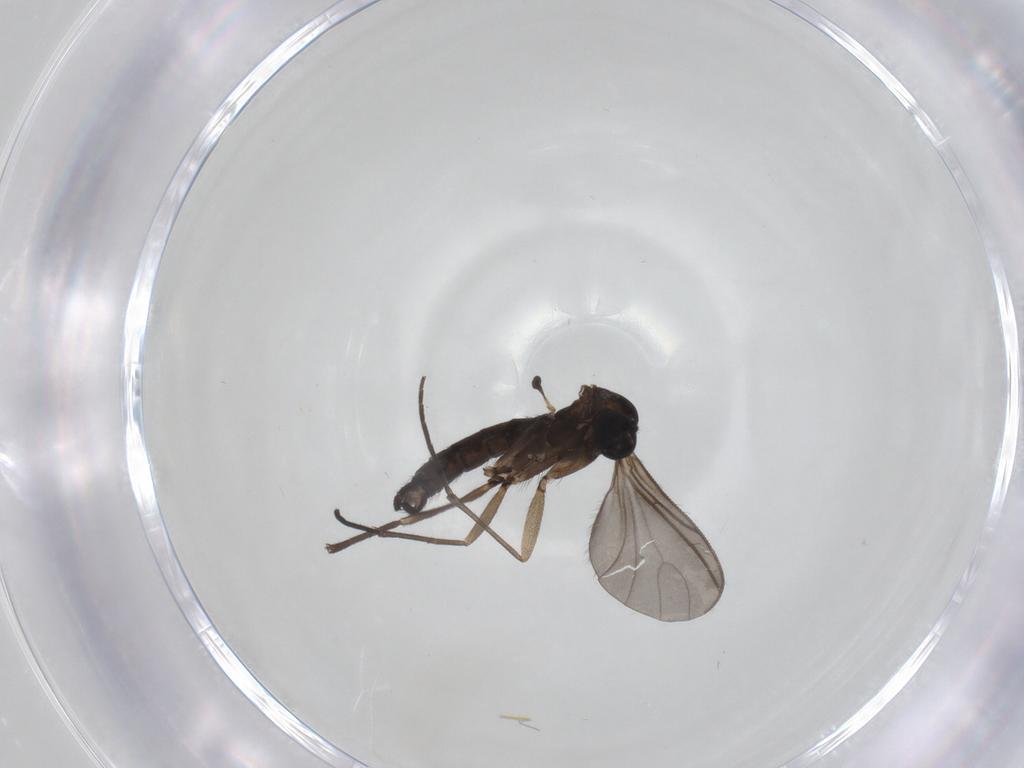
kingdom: Animalia
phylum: Arthropoda
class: Insecta
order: Diptera
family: Sciaridae
